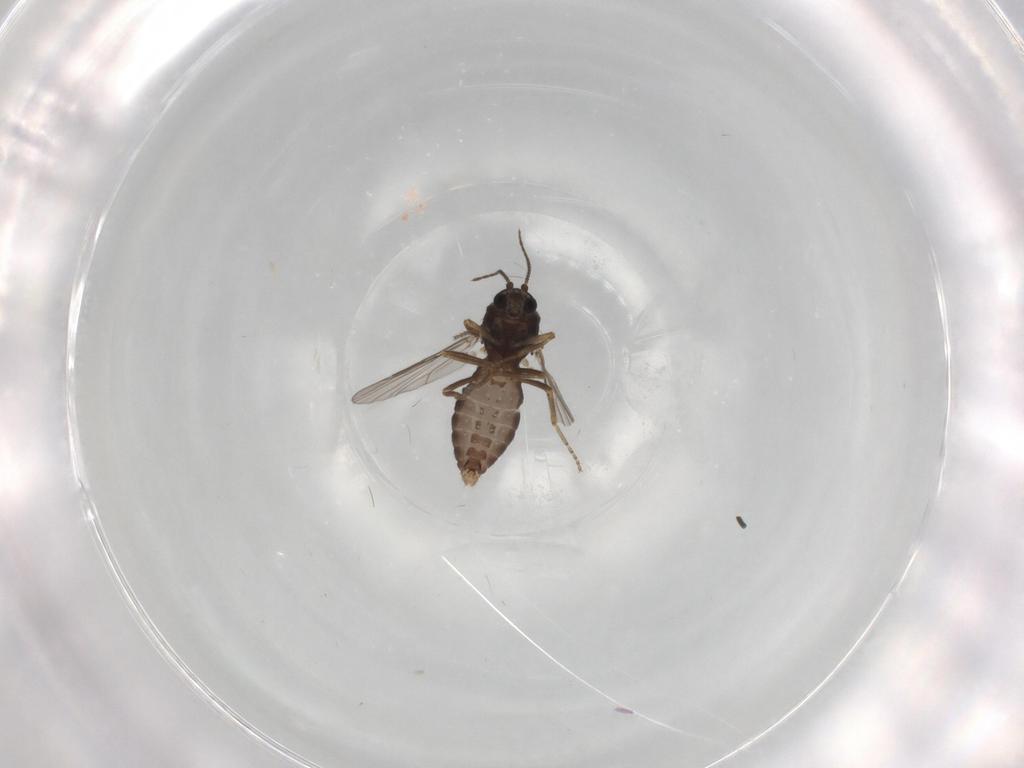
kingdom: Animalia
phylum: Arthropoda
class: Insecta
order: Diptera
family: Ceratopogonidae
